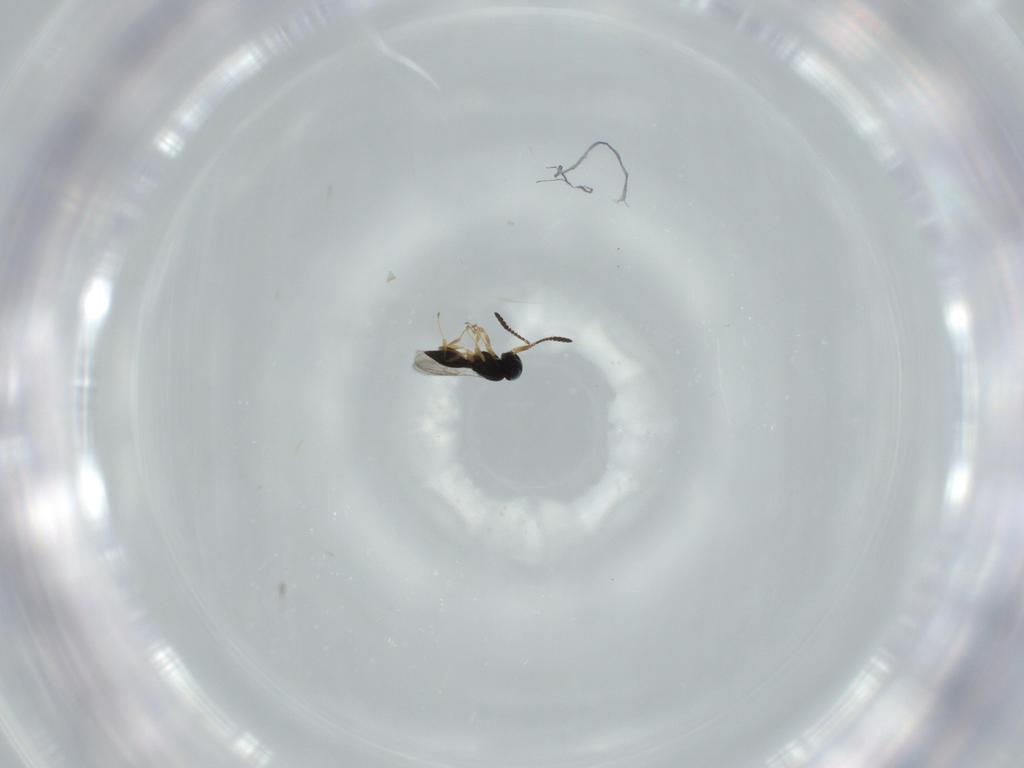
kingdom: Animalia
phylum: Arthropoda
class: Insecta
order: Hymenoptera
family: Scelionidae
